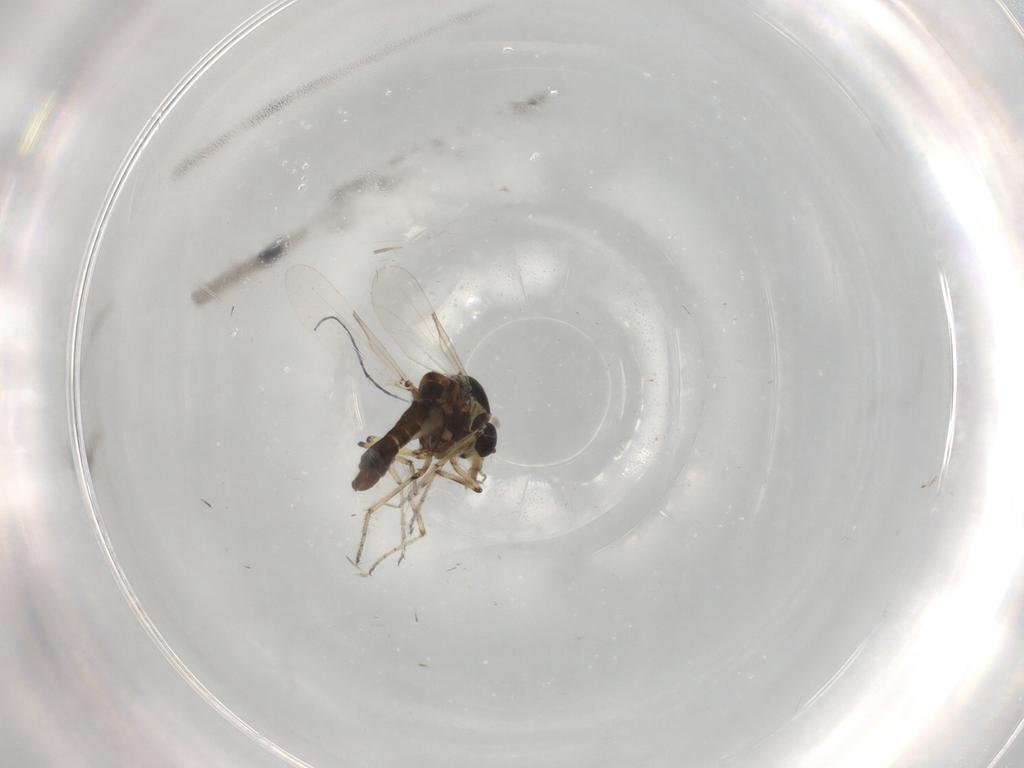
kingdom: Animalia
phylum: Arthropoda
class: Insecta
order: Diptera
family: Ceratopogonidae
